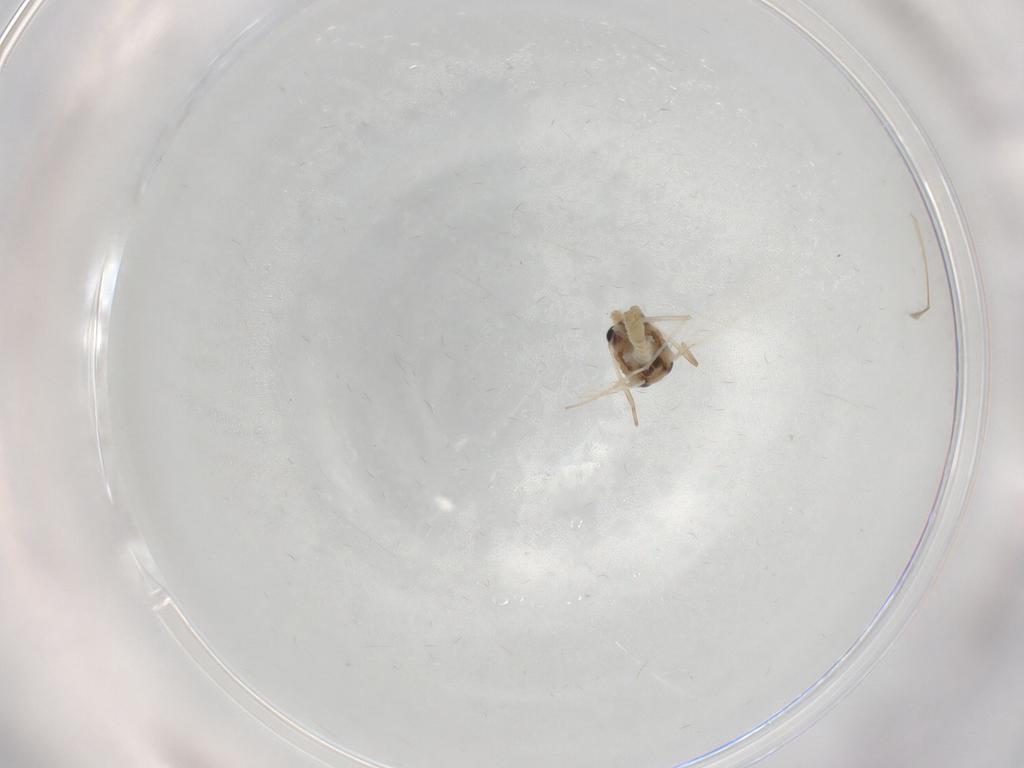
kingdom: Animalia
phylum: Arthropoda
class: Insecta
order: Diptera
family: Chironomidae
